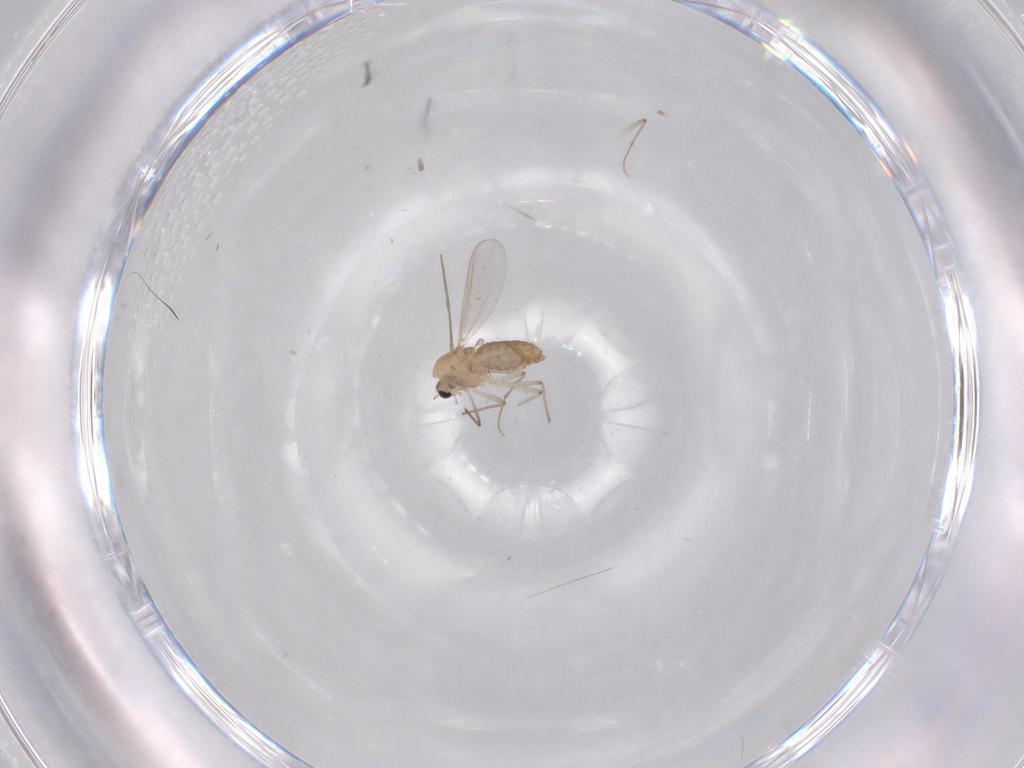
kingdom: Animalia
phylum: Arthropoda
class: Insecta
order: Diptera
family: Chironomidae
